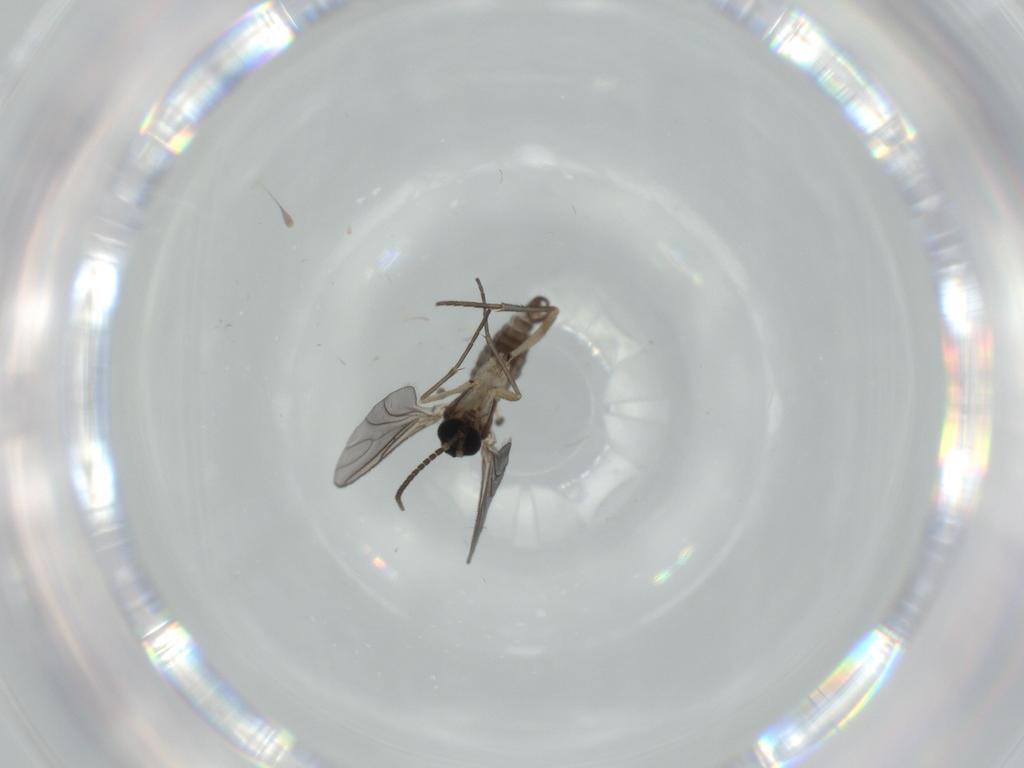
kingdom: Animalia
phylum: Arthropoda
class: Insecta
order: Diptera
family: Sciaridae
